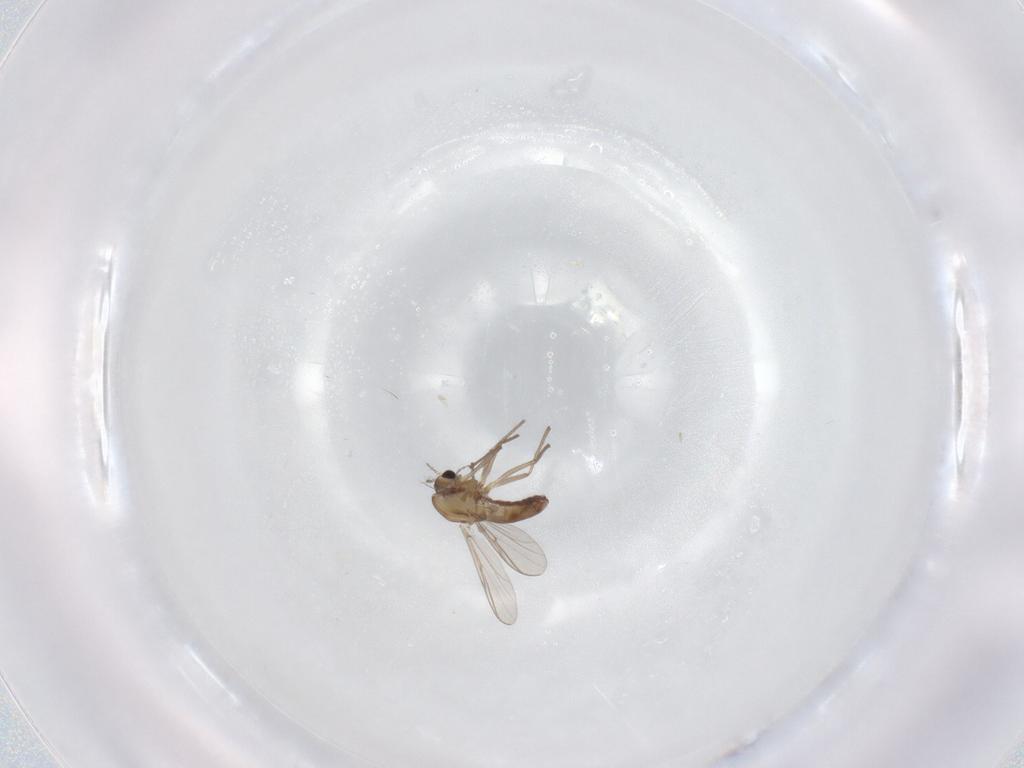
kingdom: Animalia
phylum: Arthropoda
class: Insecta
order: Diptera
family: Chironomidae
